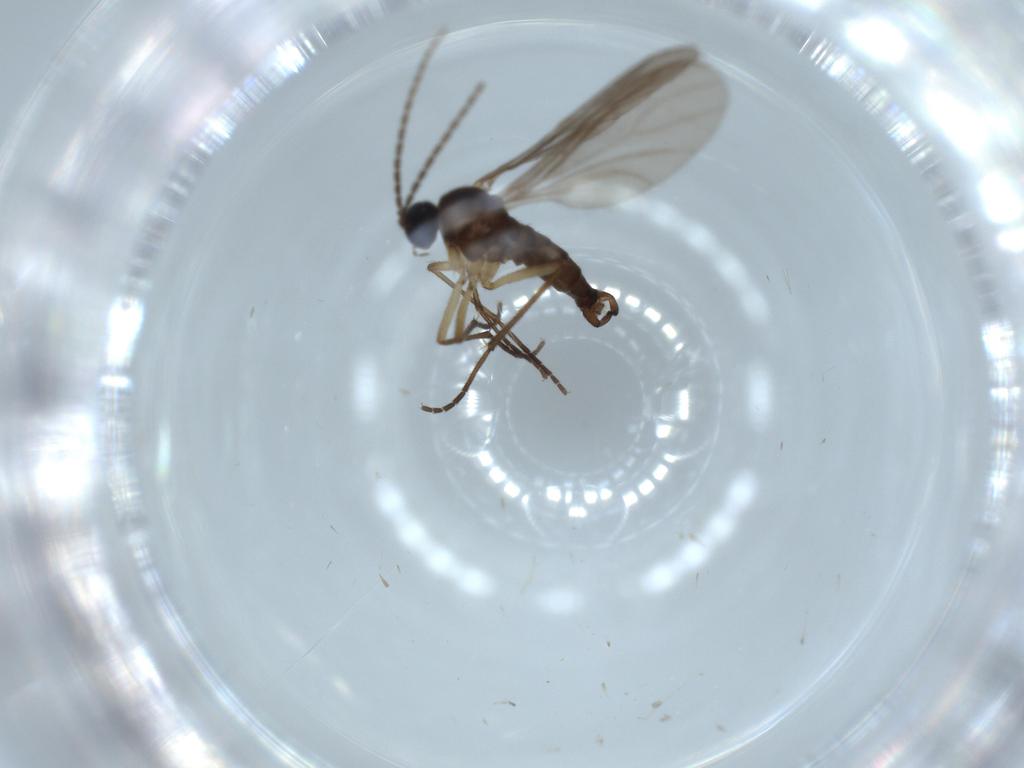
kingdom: Animalia
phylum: Arthropoda
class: Insecta
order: Diptera
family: Sciaridae
